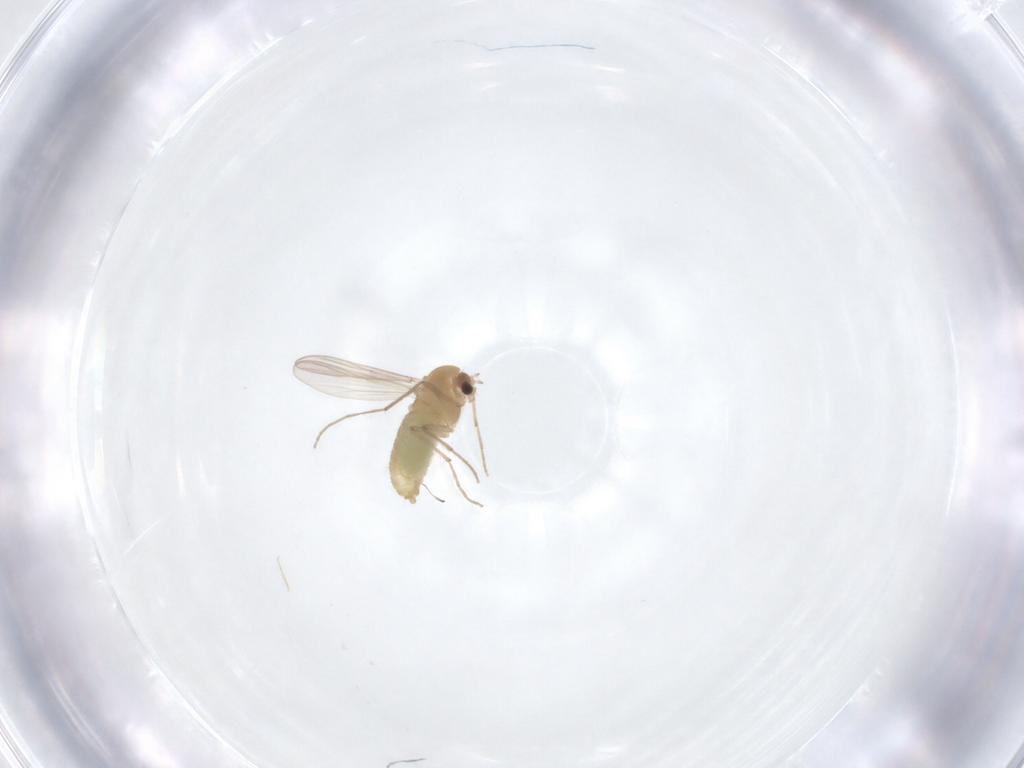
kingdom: Animalia
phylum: Arthropoda
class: Insecta
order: Diptera
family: Chironomidae
